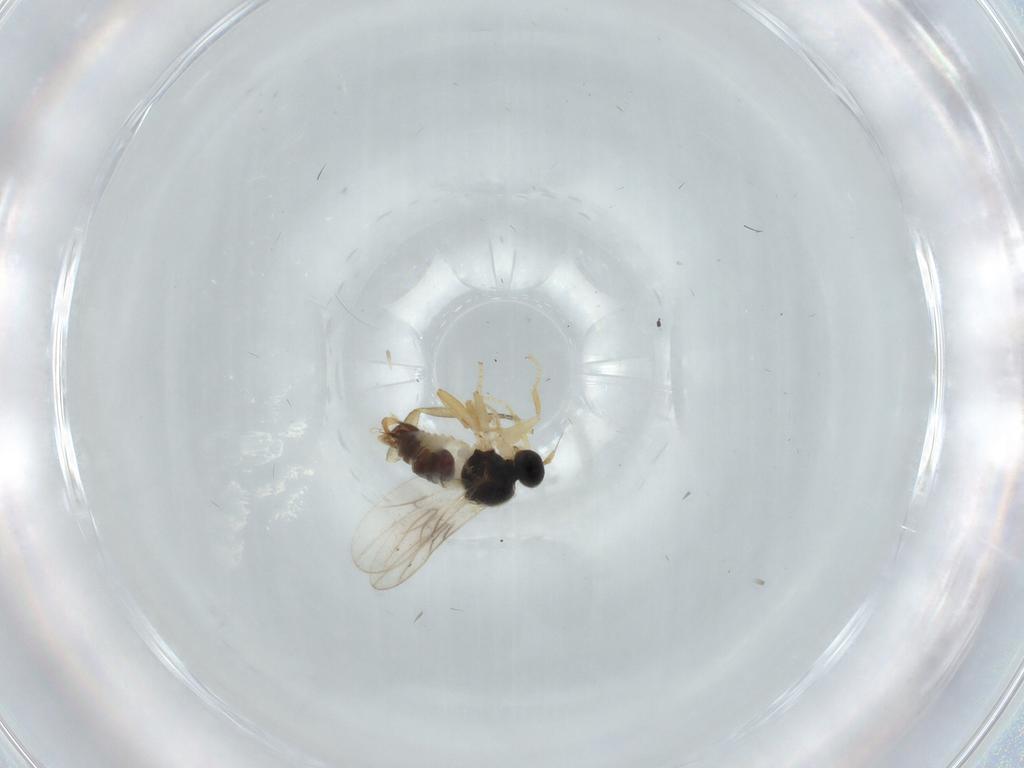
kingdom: Animalia
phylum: Arthropoda
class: Insecta
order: Diptera
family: Hybotidae
